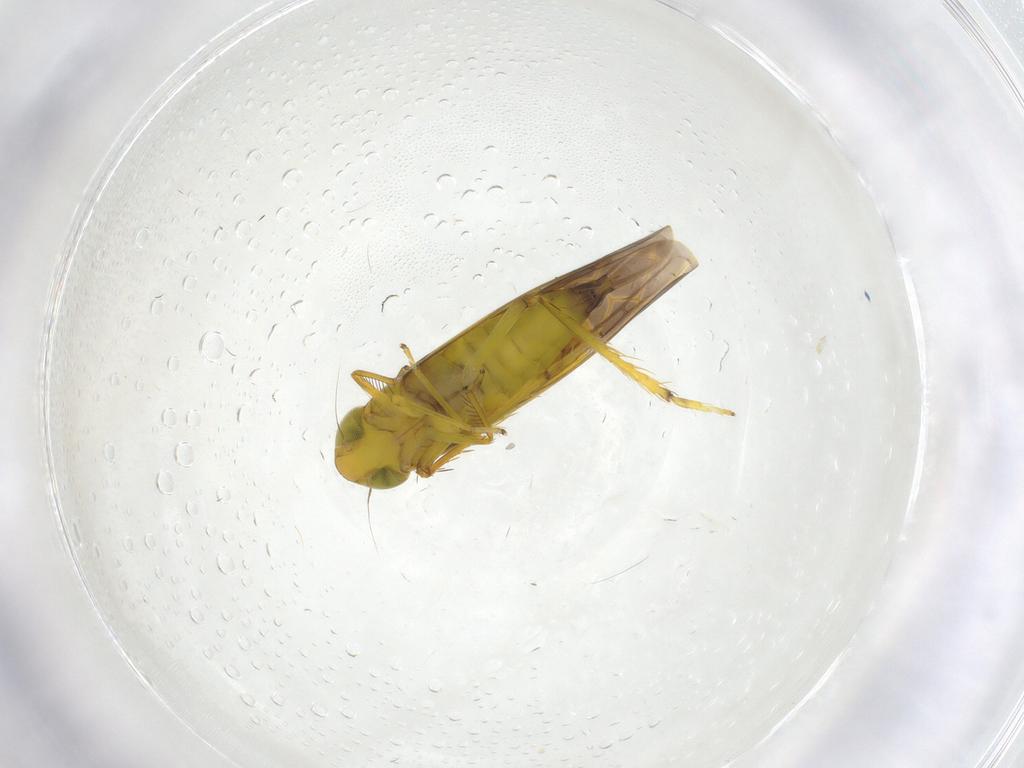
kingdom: Animalia
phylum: Arthropoda
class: Insecta
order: Hemiptera
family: Cicadellidae
